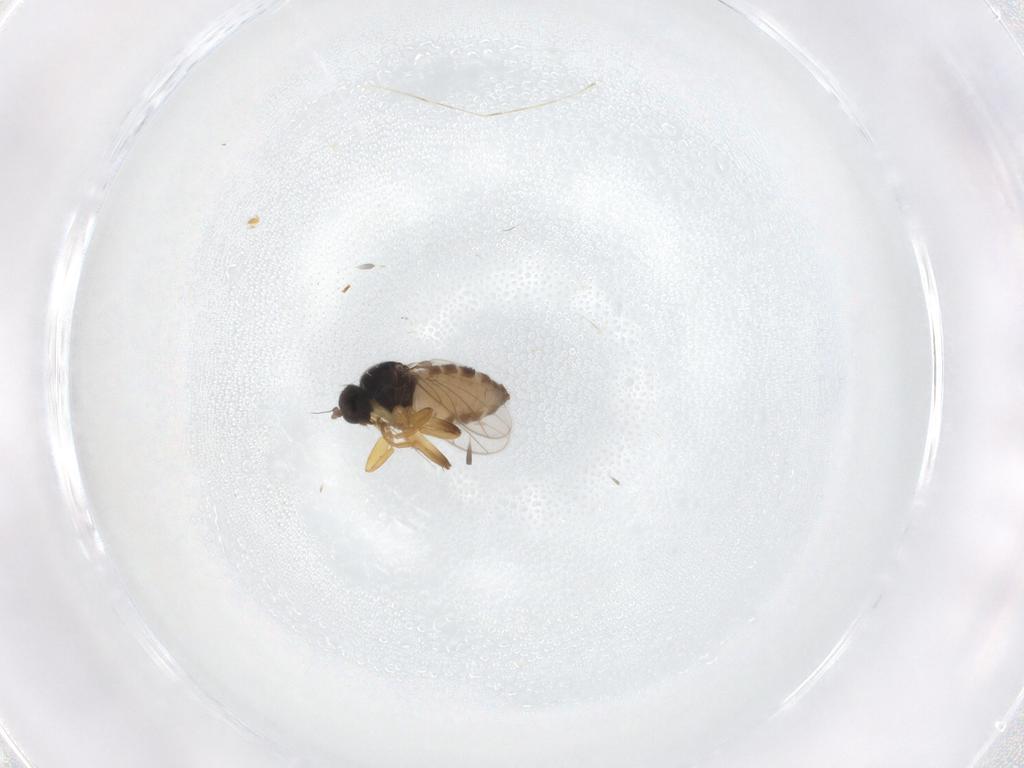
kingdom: Animalia
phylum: Arthropoda
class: Insecta
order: Diptera
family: Hybotidae
